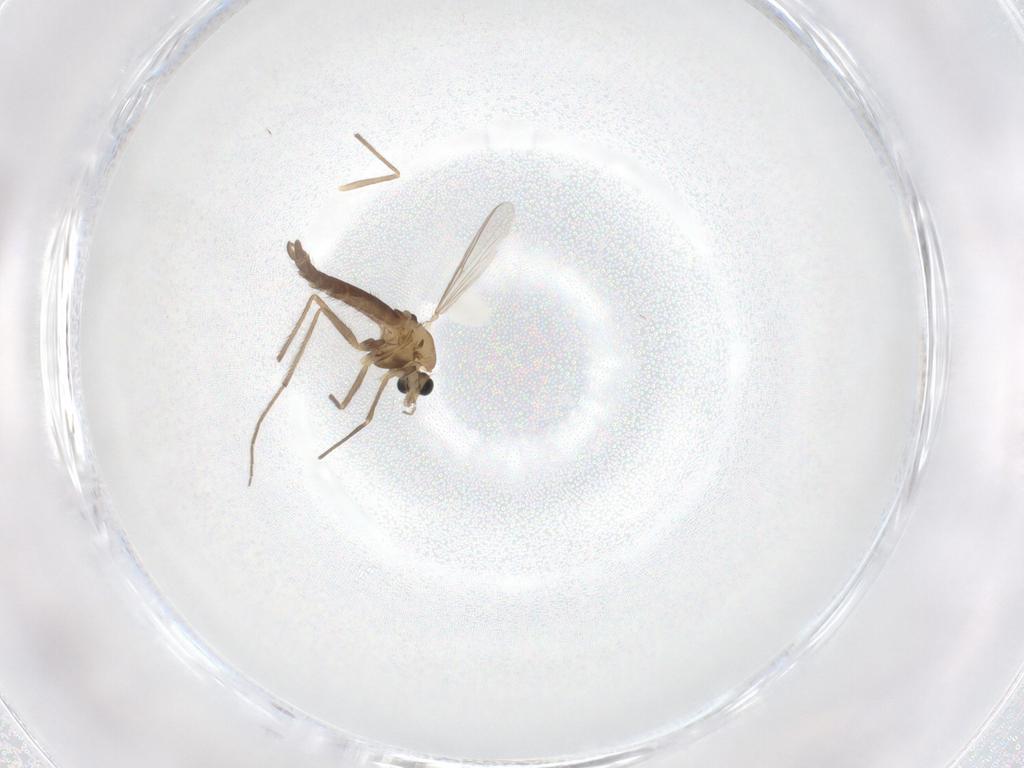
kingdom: Animalia
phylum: Arthropoda
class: Insecta
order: Diptera
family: Chironomidae
